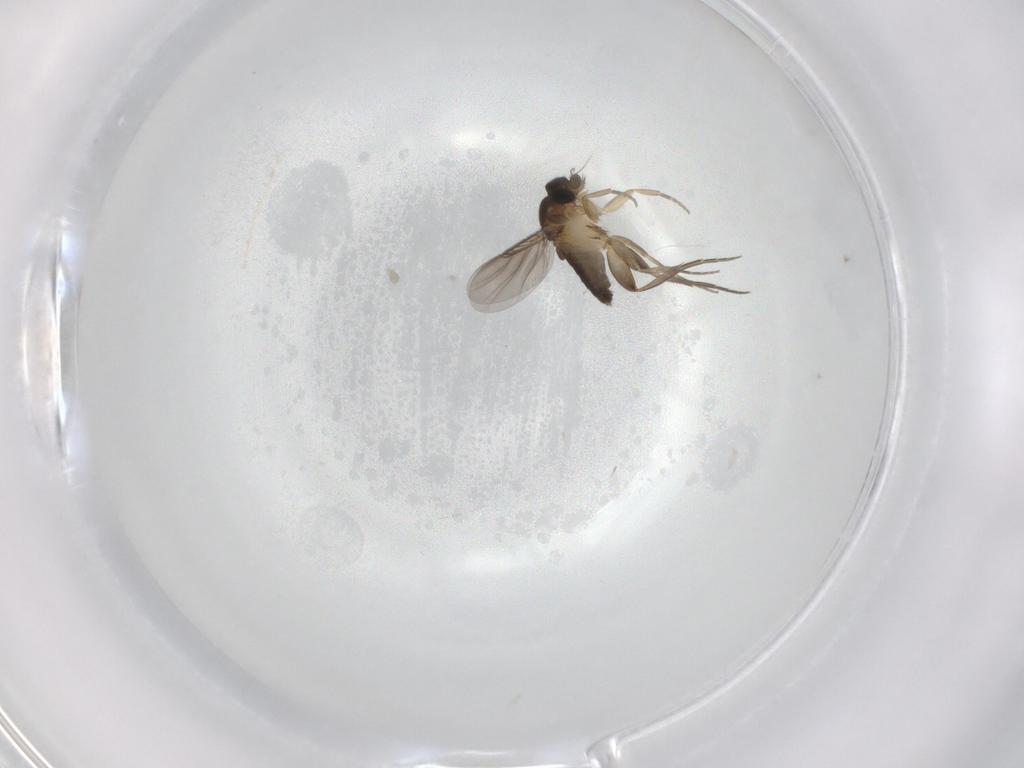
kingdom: Animalia
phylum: Arthropoda
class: Insecta
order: Diptera
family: Phoridae
